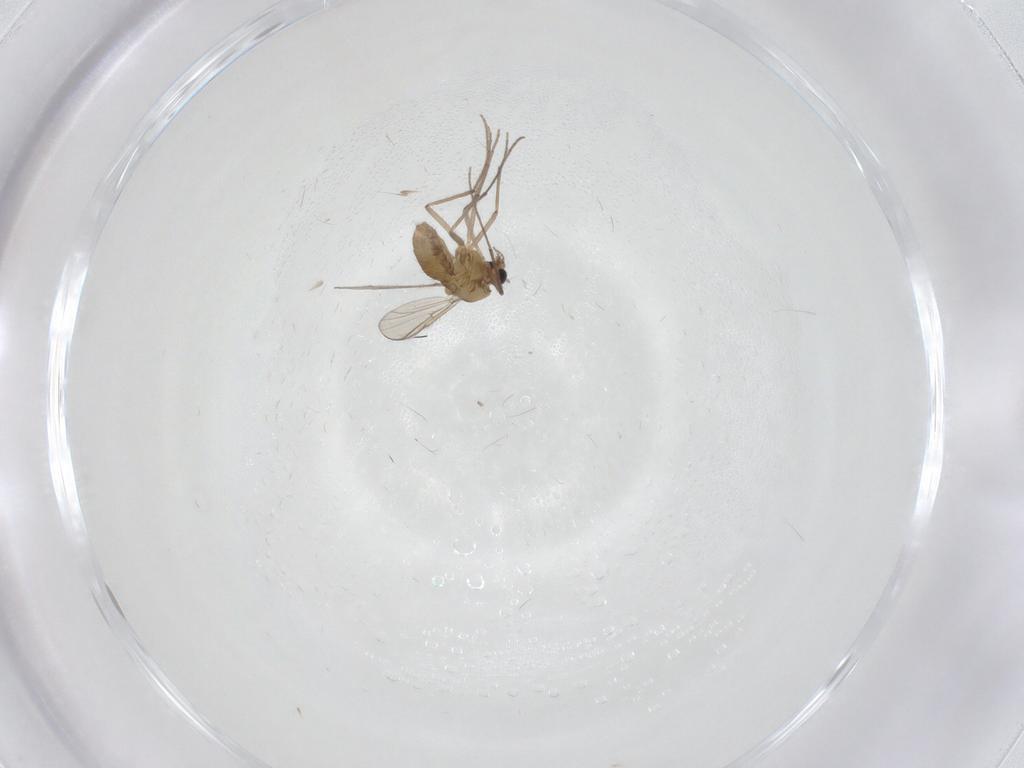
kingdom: Animalia
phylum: Arthropoda
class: Insecta
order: Diptera
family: Chironomidae
